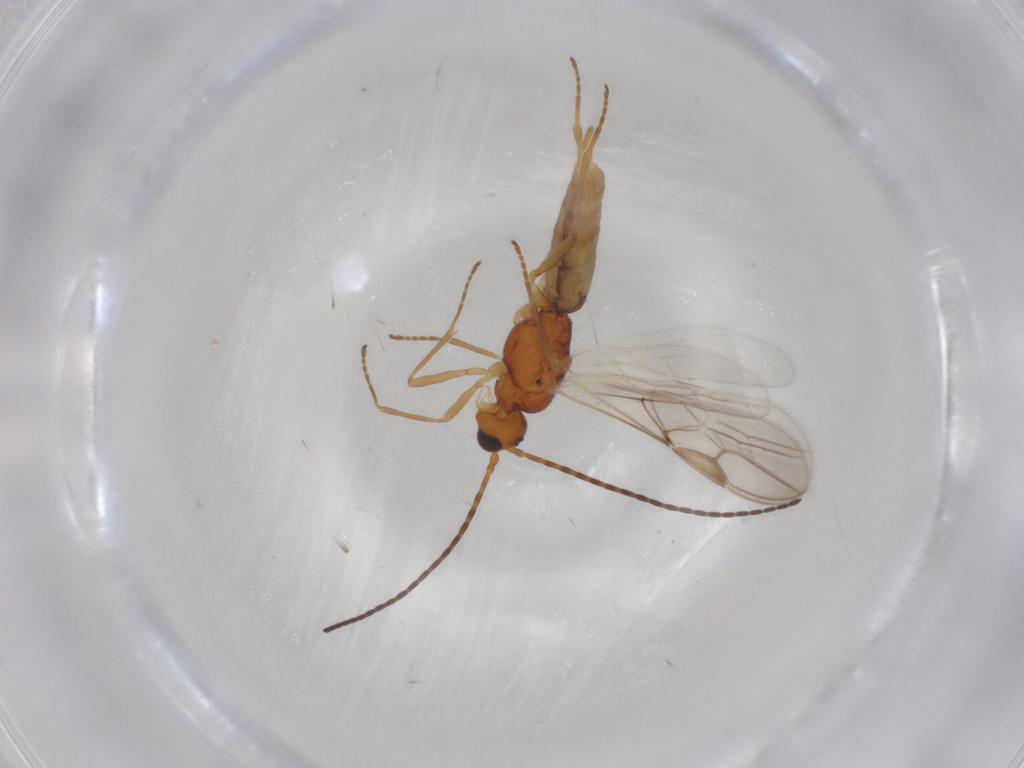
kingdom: Animalia
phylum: Arthropoda
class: Insecta
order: Hymenoptera
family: Braconidae
